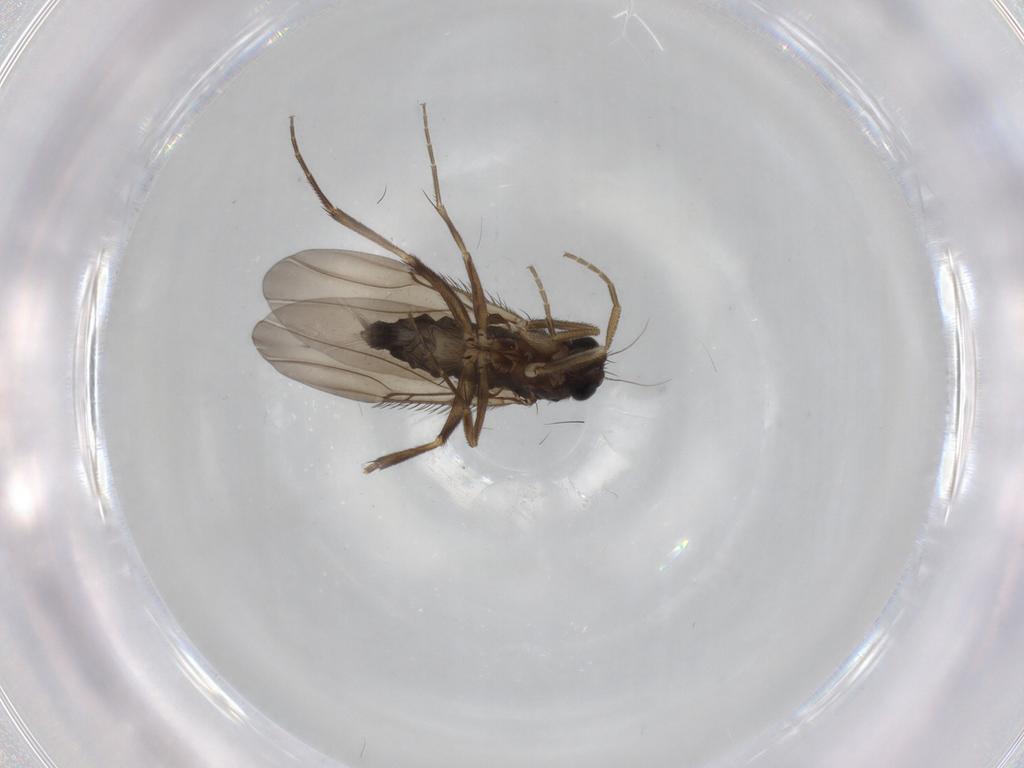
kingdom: Animalia
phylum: Arthropoda
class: Insecta
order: Diptera
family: Phoridae
